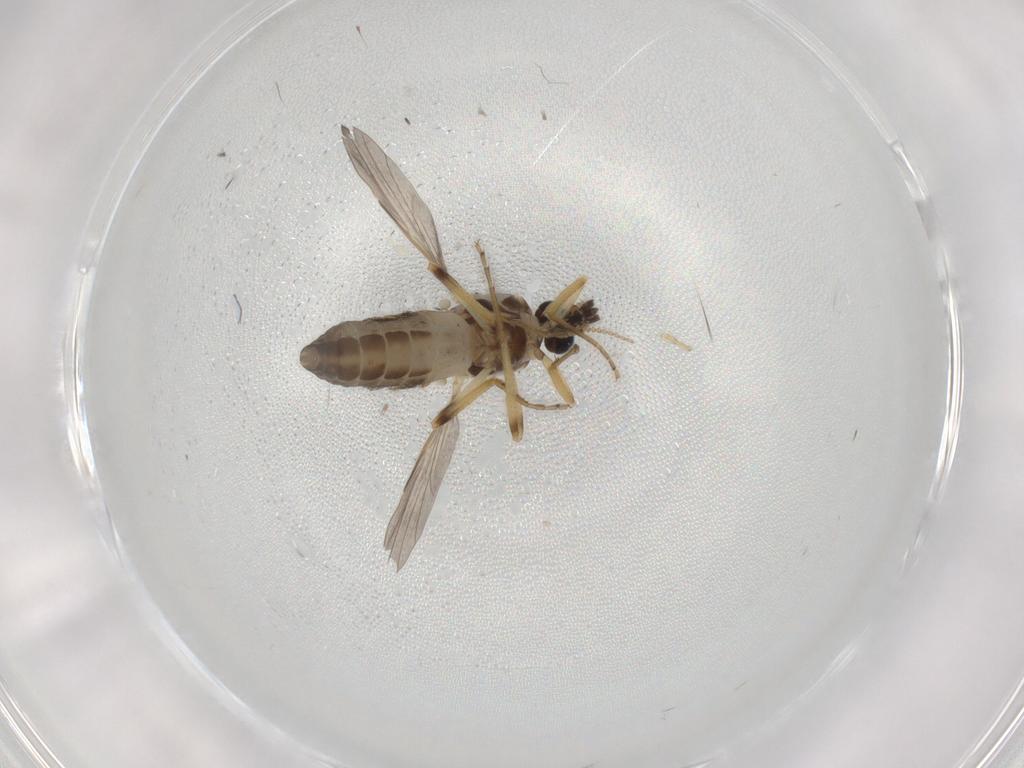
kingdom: Animalia
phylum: Arthropoda
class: Insecta
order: Diptera
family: Ceratopogonidae
